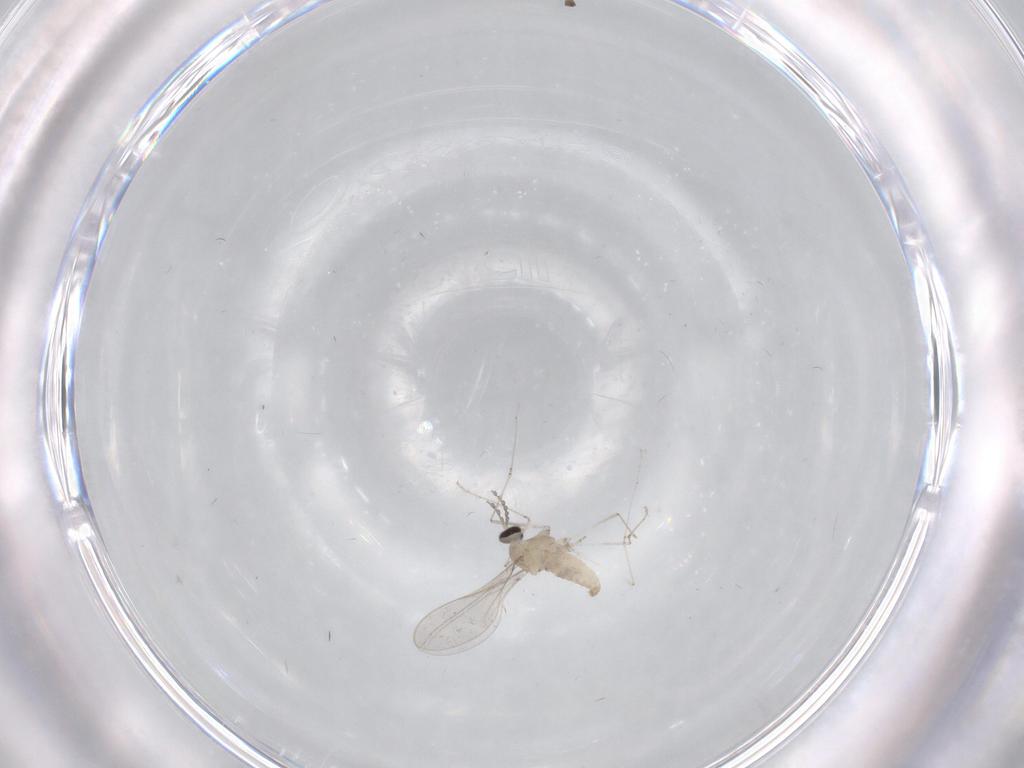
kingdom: Animalia
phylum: Arthropoda
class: Insecta
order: Diptera
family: Cecidomyiidae
